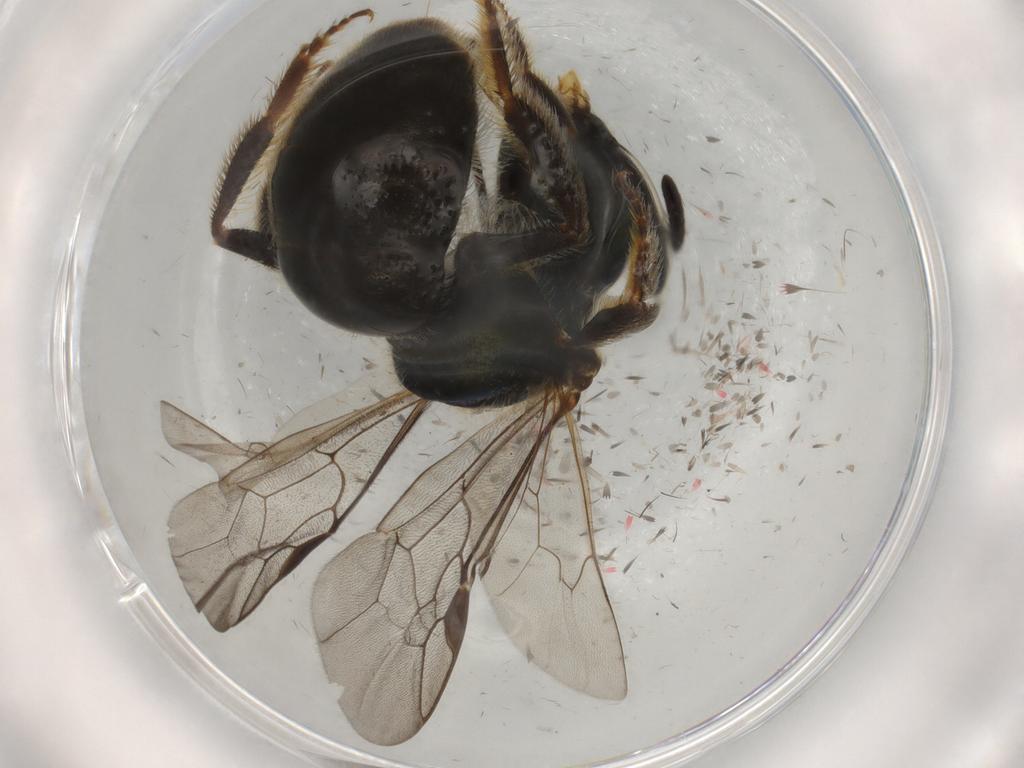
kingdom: Animalia
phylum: Arthropoda
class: Insecta
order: Hymenoptera
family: Halictidae
